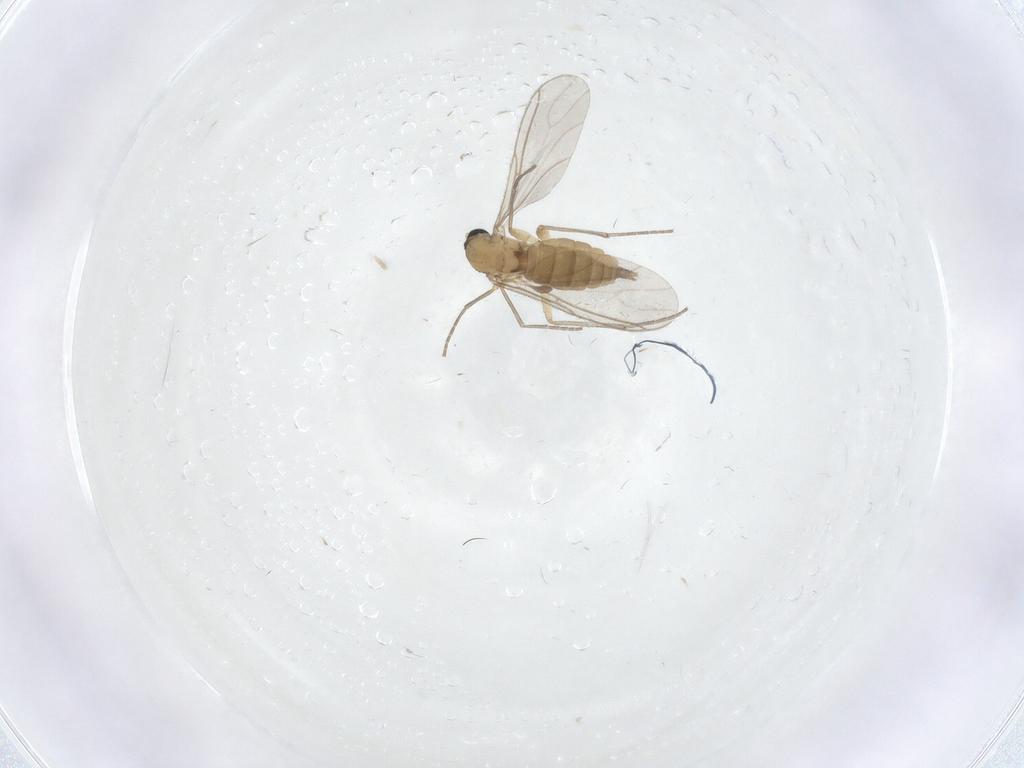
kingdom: Animalia
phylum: Arthropoda
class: Insecta
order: Diptera
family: Cecidomyiidae
